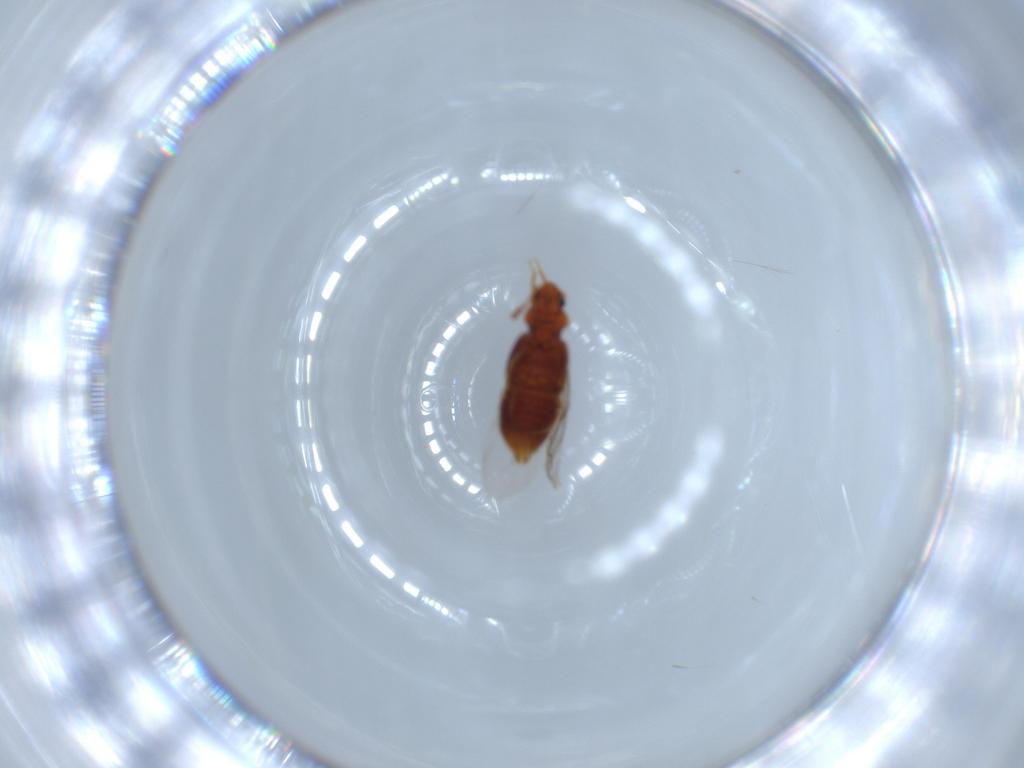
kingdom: Animalia
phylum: Arthropoda
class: Insecta
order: Coleoptera
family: Staphylinidae
